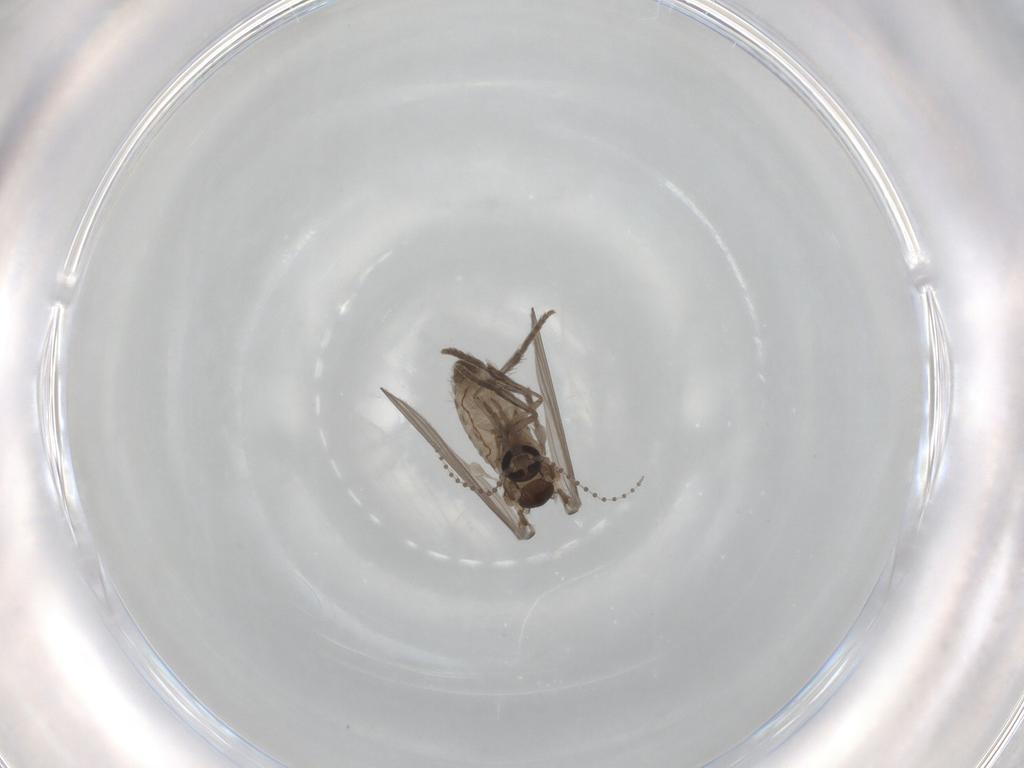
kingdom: Animalia
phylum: Arthropoda
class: Insecta
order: Diptera
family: Psychodidae
